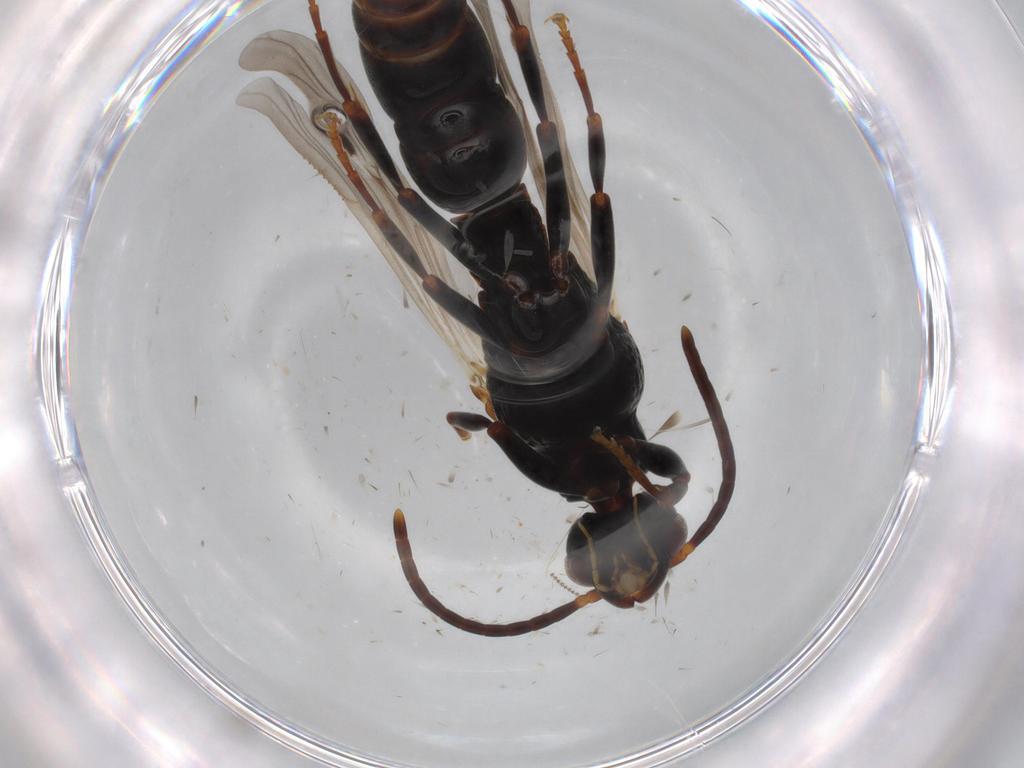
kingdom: Animalia
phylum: Arthropoda
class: Insecta
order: Hymenoptera
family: Formicidae
